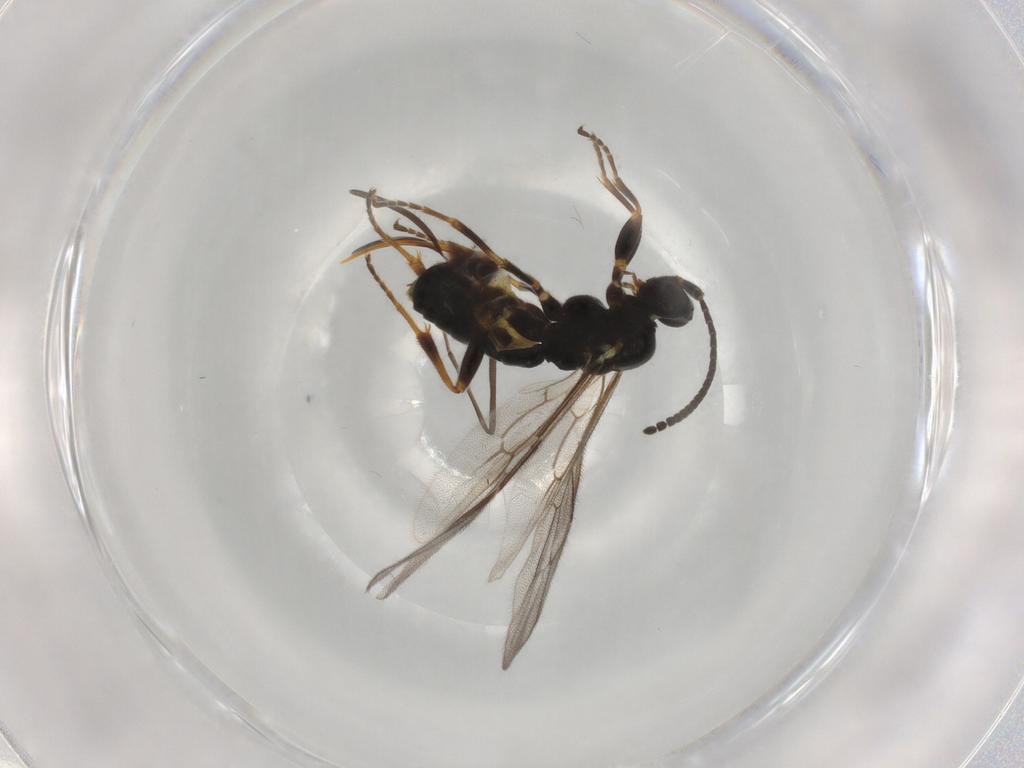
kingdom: Animalia
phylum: Arthropoda
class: Insecta
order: Hymenoptera
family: Ichneumonidae
